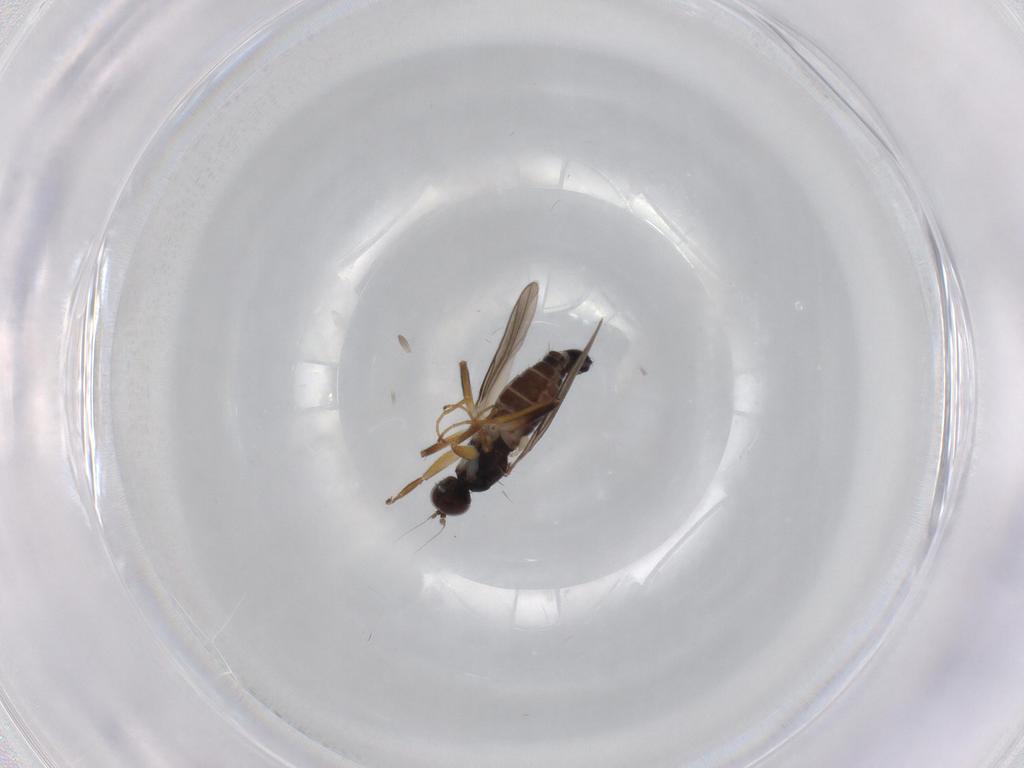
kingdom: Animalia
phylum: Arthropoda
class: Insecta
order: Diptera
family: Hybotidae
